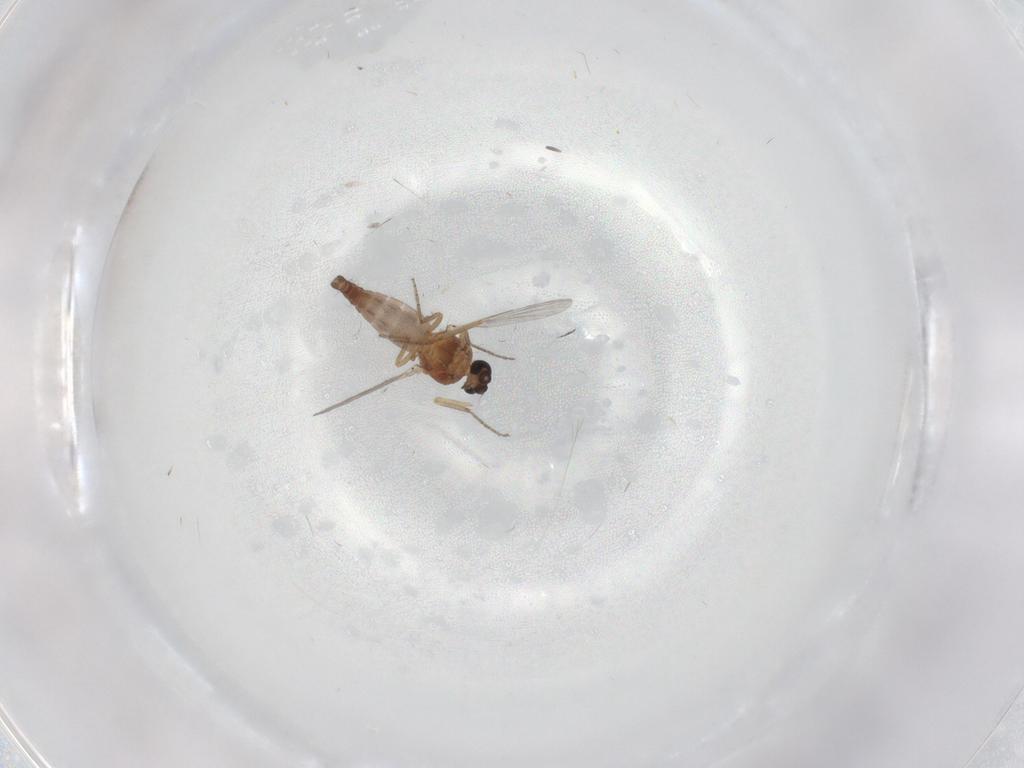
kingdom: Animalia
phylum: Arthropoda
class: Insecta
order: Diptera
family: Ceratopogonidae
